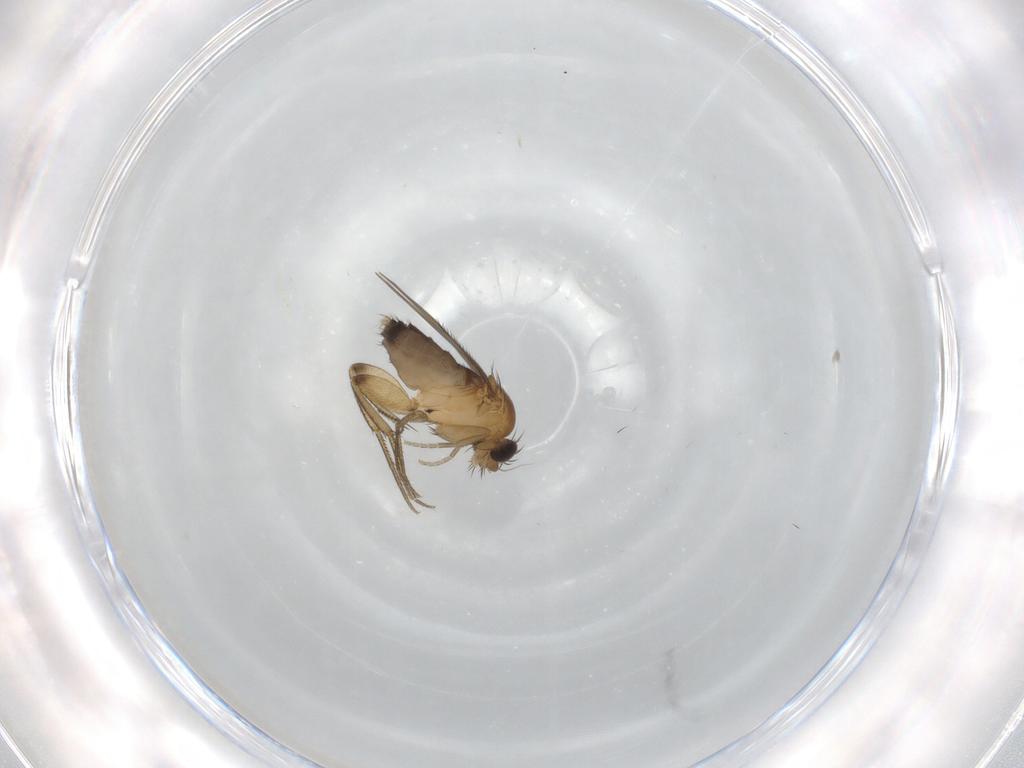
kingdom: Animalia
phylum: Arthropoda
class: Insecta
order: Diptera
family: Phoridae
